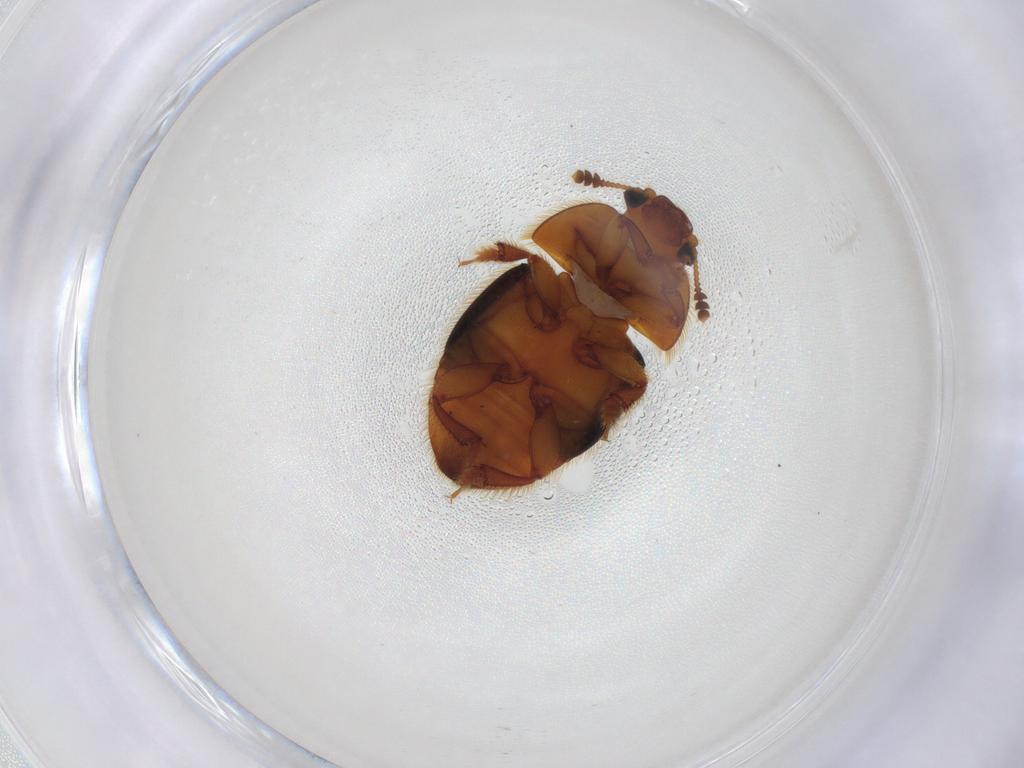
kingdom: Animalia
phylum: Arthropoda
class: Insecta
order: Coleoptera
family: Nitidulidae
